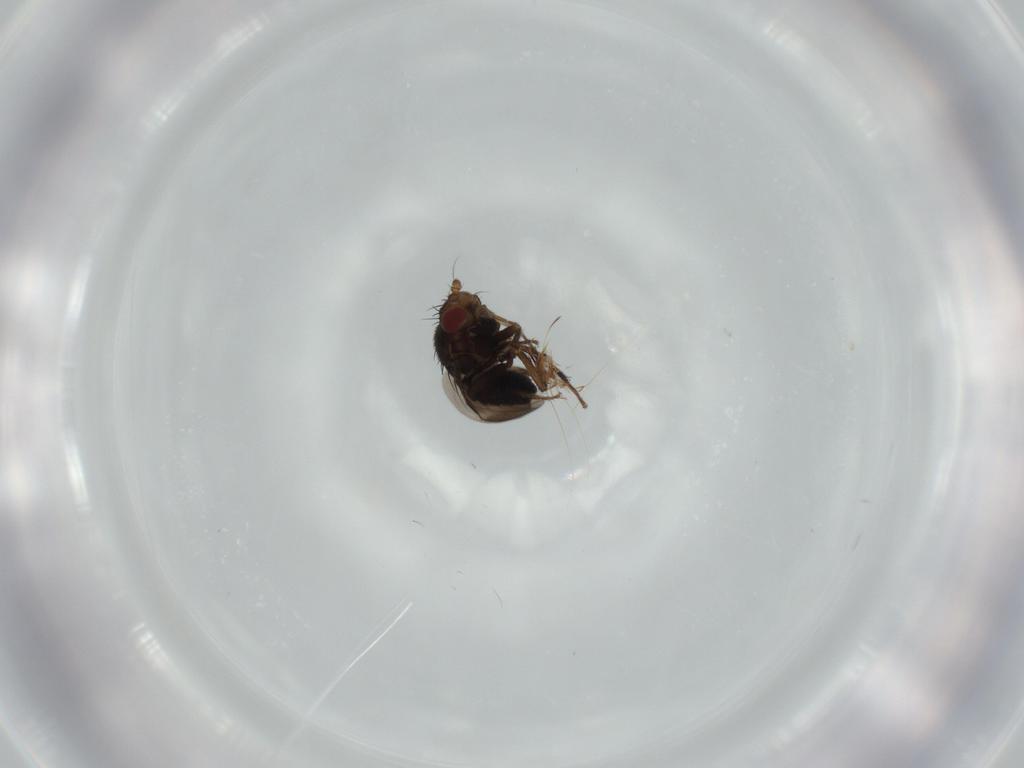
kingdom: Animalia
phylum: Arthropoda
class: Insecta
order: Diptera
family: Sphaeroceridae
